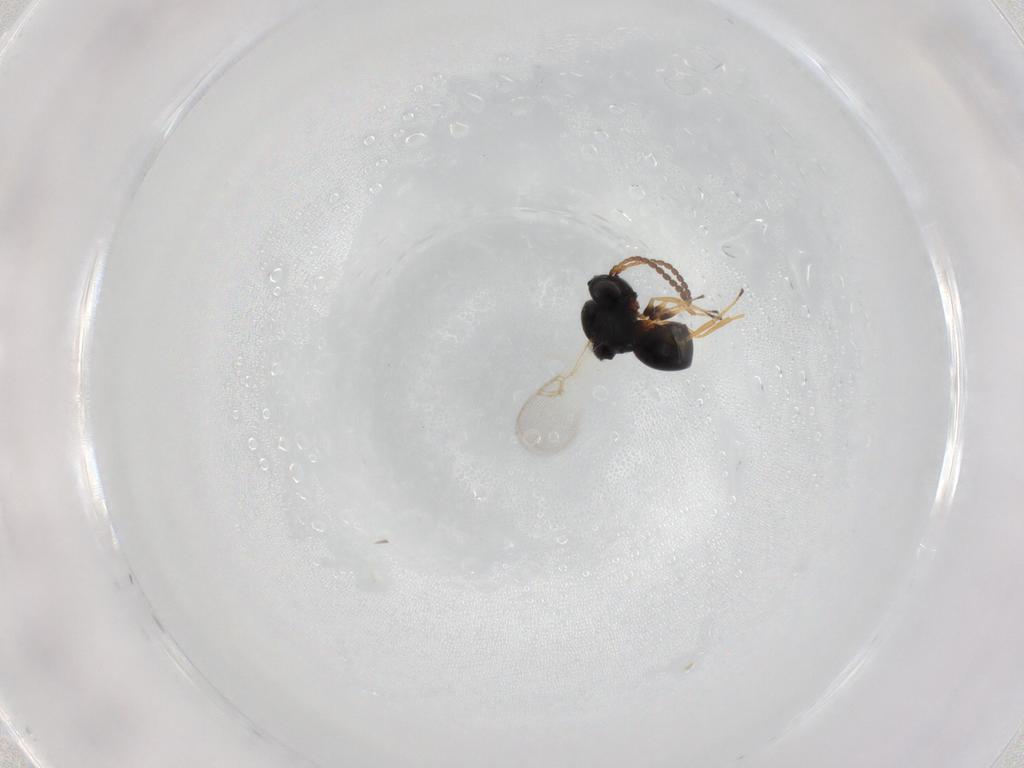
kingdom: Animalia
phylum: Arthropoda
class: Insecta
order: Hymenoptera
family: Figitidae
